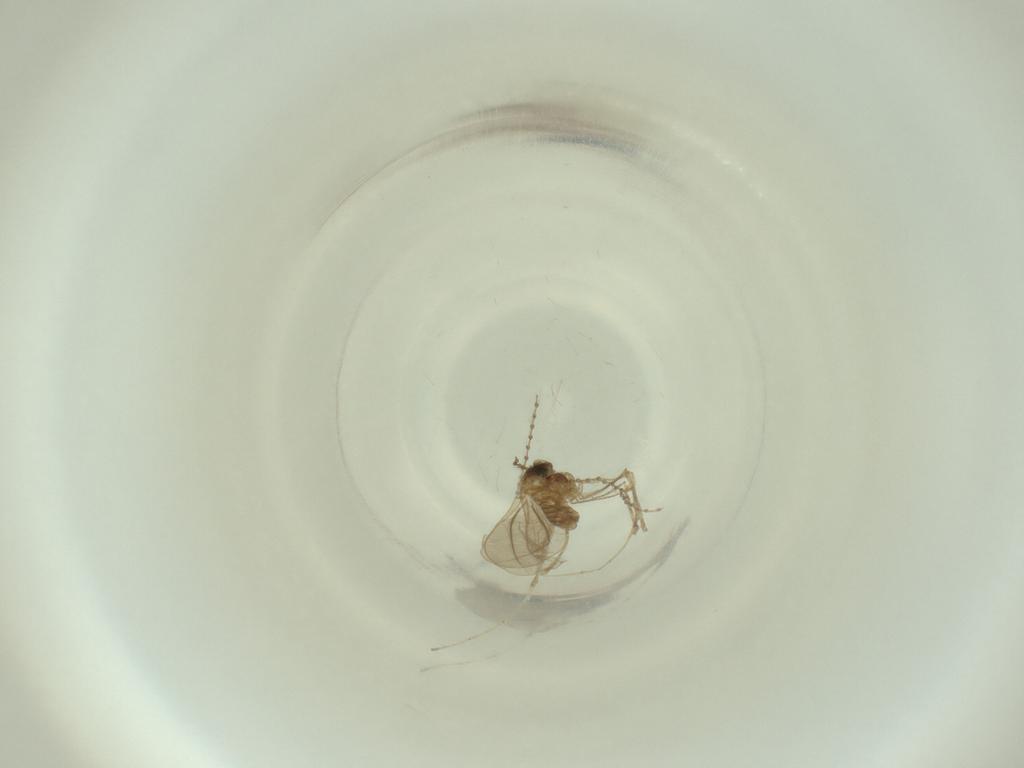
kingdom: Animalia
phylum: Arthropoda
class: Insecta
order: Diptera
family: Cecidomyiidae
